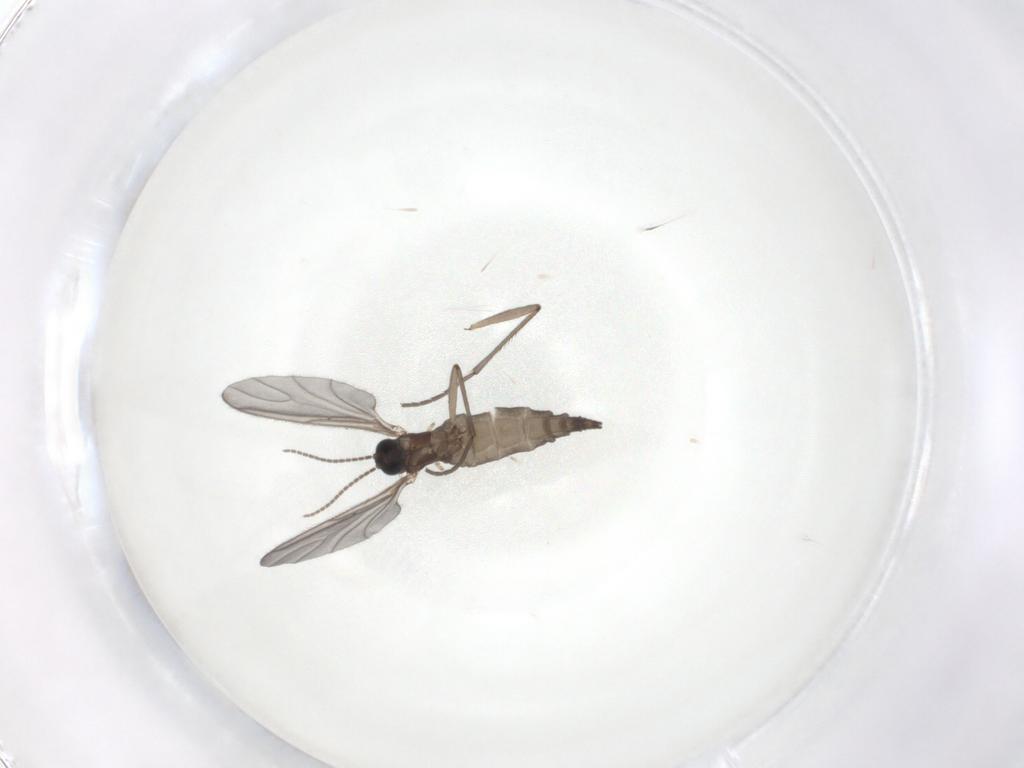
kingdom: Animalia
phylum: Arthropoda
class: Insecta
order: Diptera
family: Sciaridae
